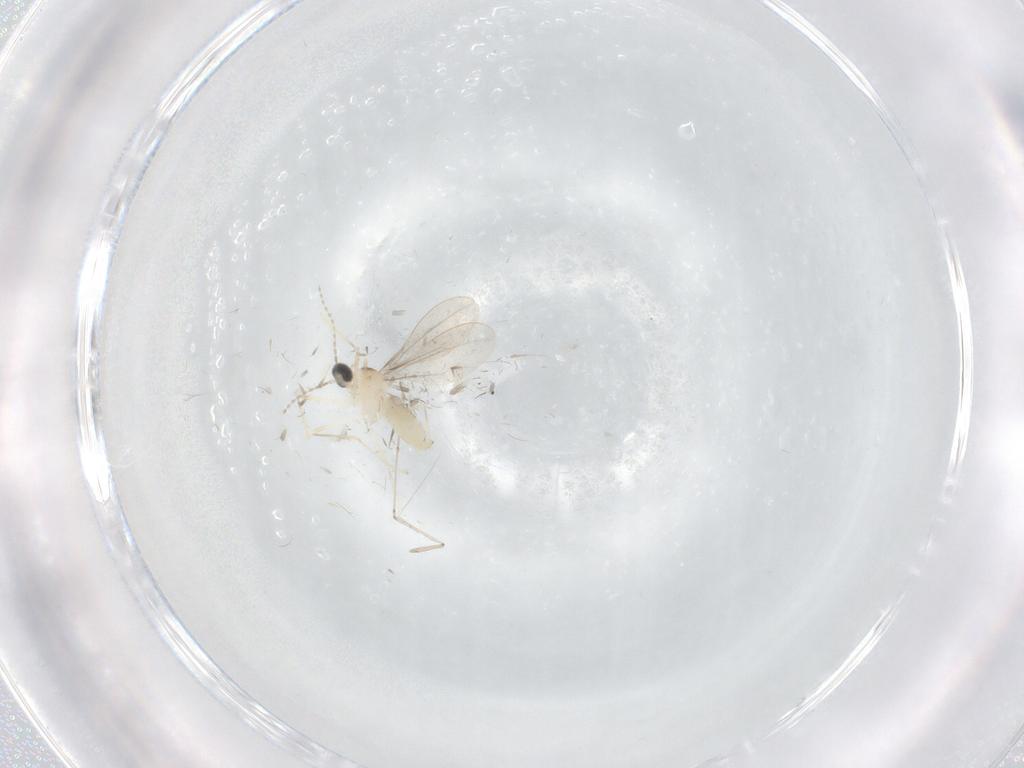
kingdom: Animalia
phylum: Arthropoda
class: Insecta
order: Diptera
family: Cecidomyiidae
